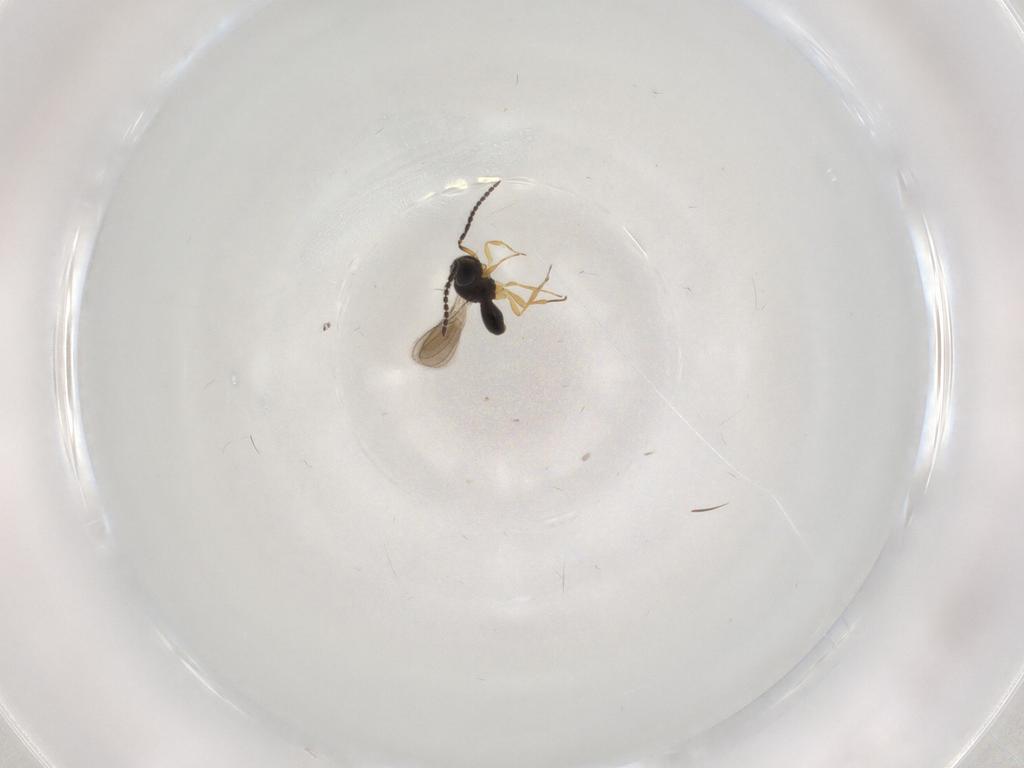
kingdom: Animalia
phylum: Arthropoda
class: Insecta
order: Hymenoptera
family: Scelionidae
